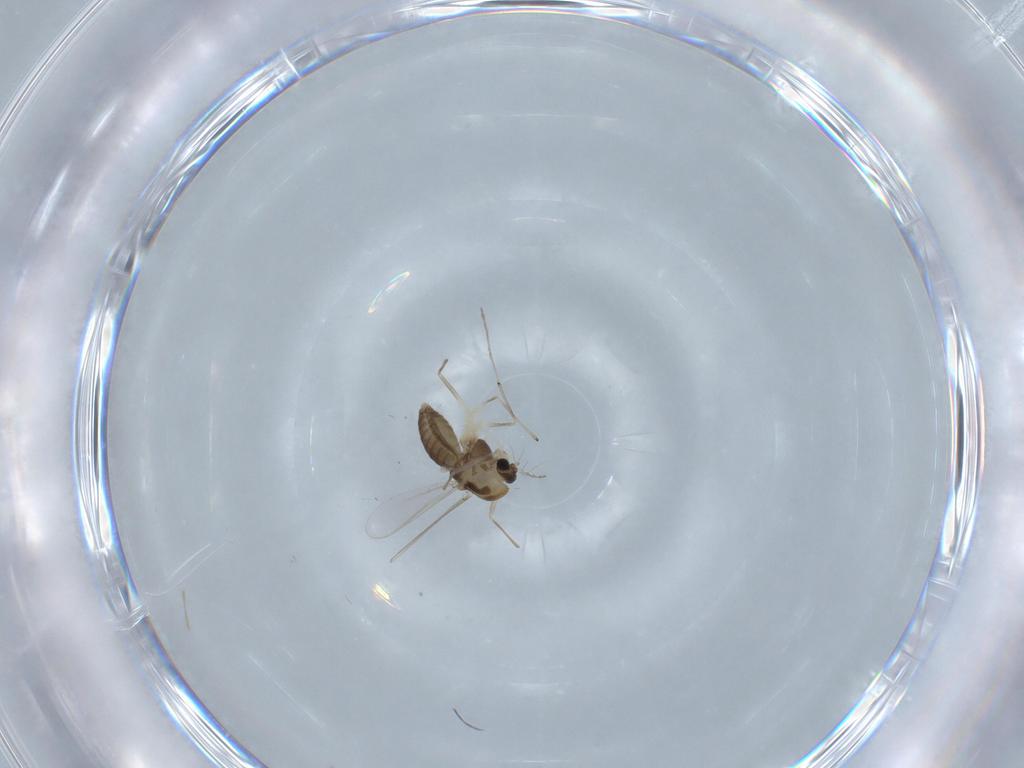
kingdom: Animalia
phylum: Arthropoda
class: Insecta
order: Diptera
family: Chironomidae
